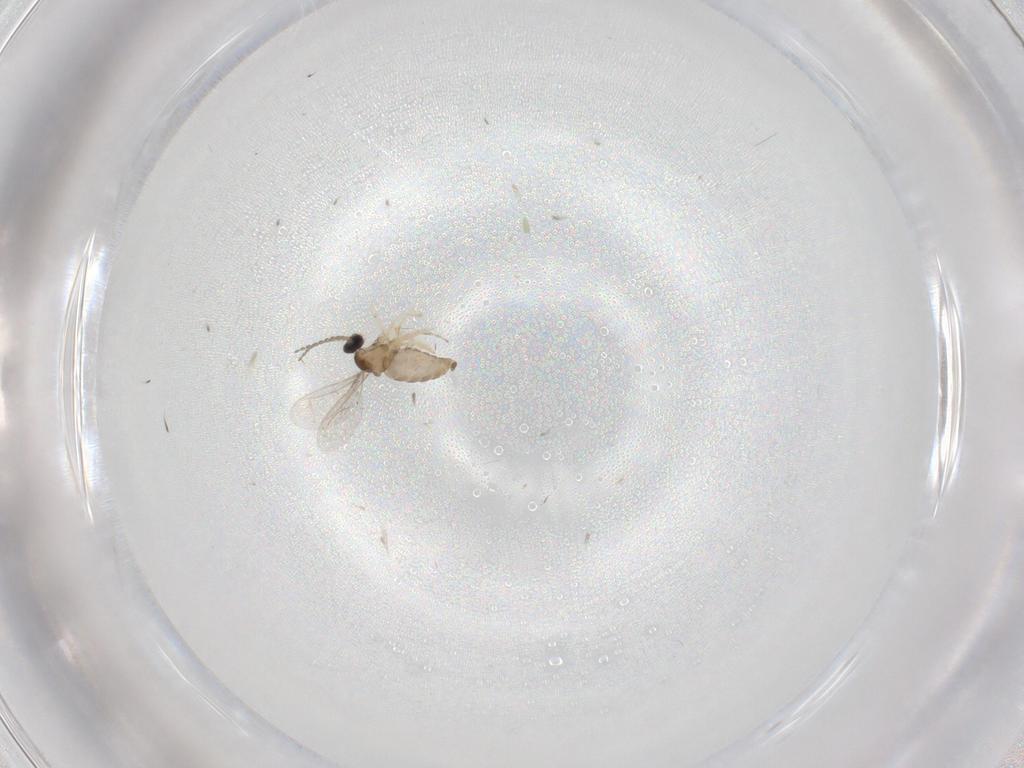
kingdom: Animalia
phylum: Arthropoda
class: Insecta
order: Diptera
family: Cecidomyiidae
